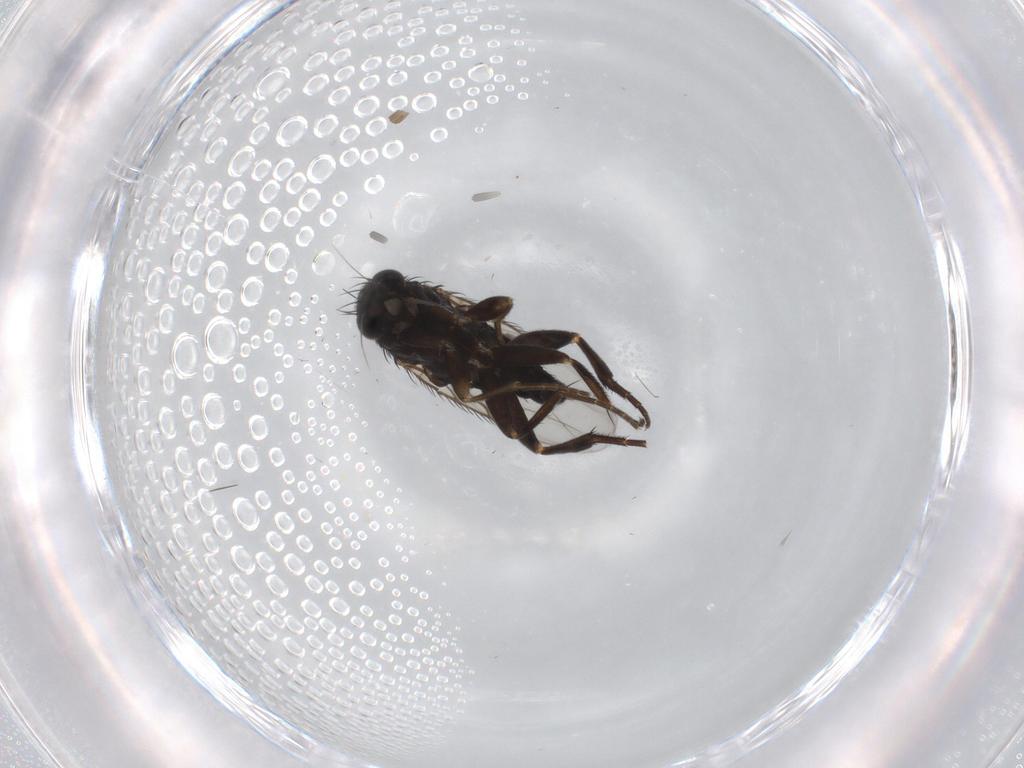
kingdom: Animalia
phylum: Arthropoda
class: Insecta
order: Diptera
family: Phoridae
